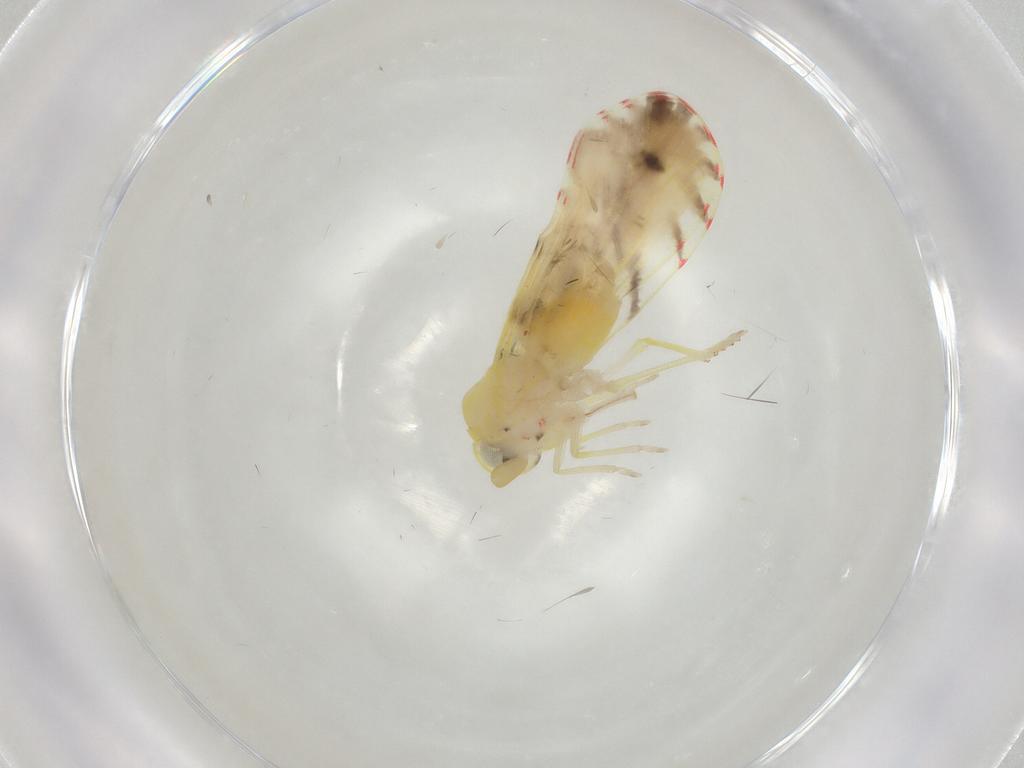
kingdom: Animalia
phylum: Arthropoda
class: Insecta
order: Hemiptera
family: Derbidae
